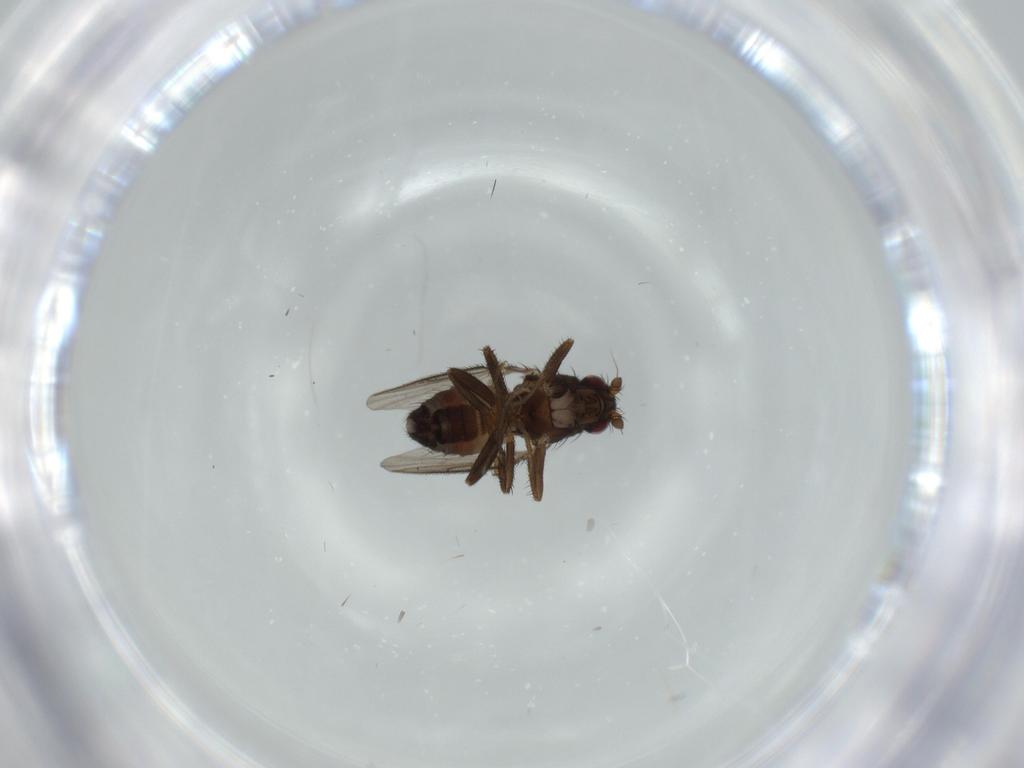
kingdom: Animalia
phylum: Arthropoda
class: Insecta
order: Diptera
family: Sphaeroceridae
